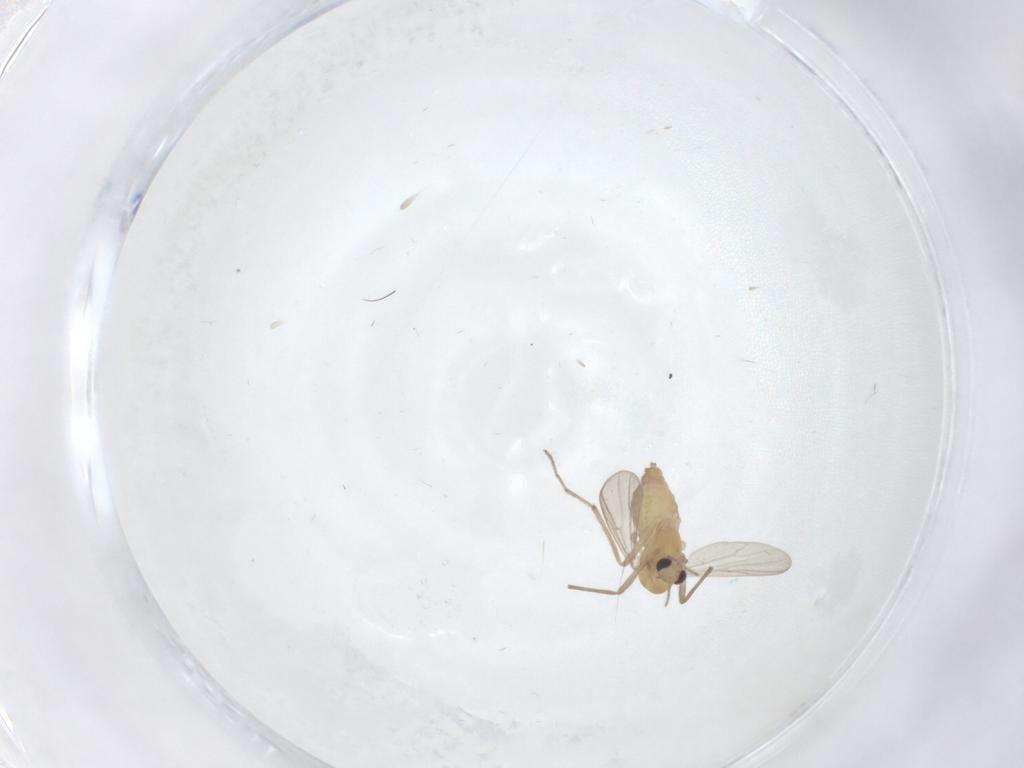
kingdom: Animalia
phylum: Arthropoda
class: Insecta
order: Diptera
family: Chironomidae
